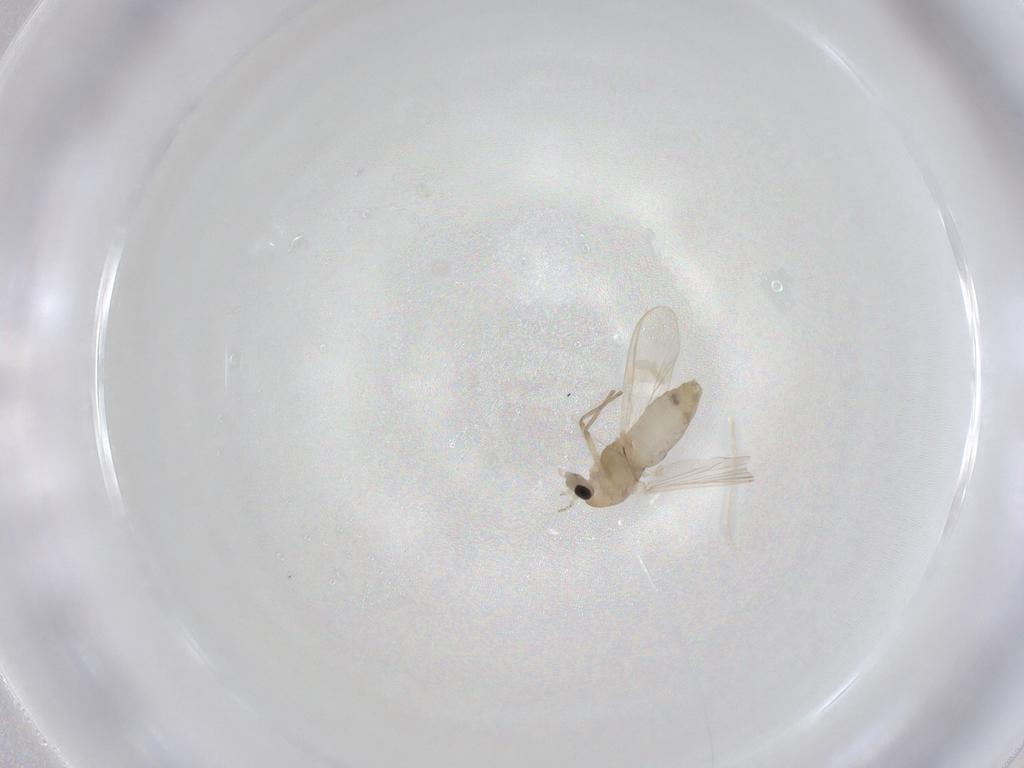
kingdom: Animalia
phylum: Arthropoda
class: Insecta
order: Diptera
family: Chironomidae
